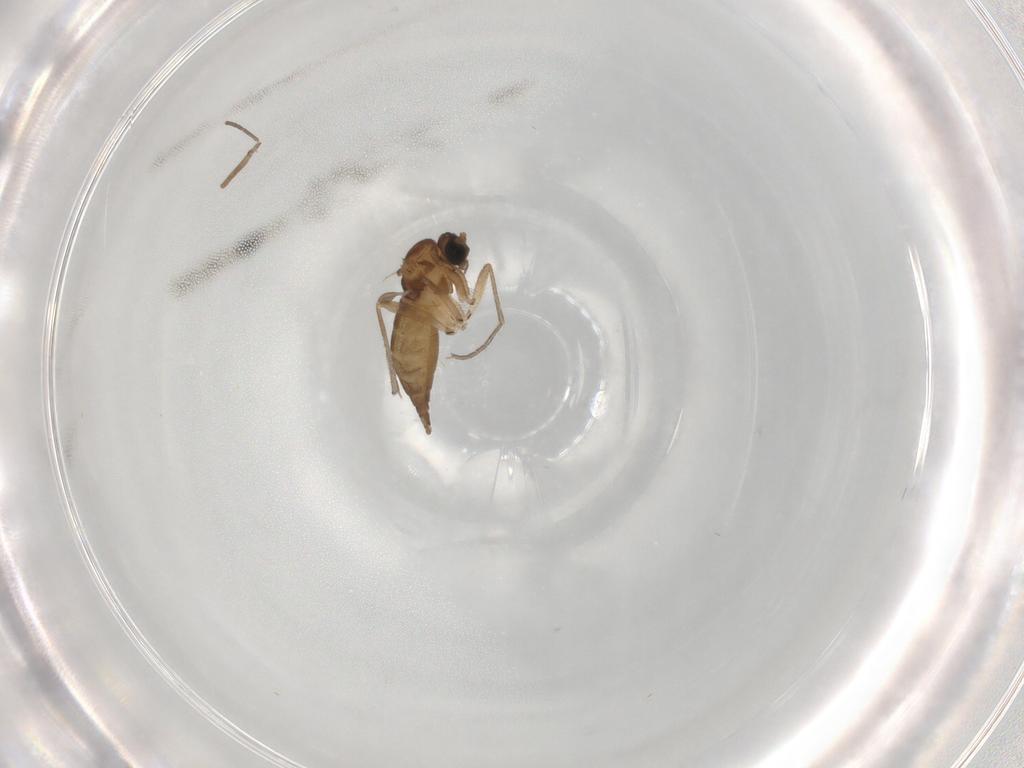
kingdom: Animalia
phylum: Arthropoda
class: Insecta
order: Diptera
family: Sciaridae
